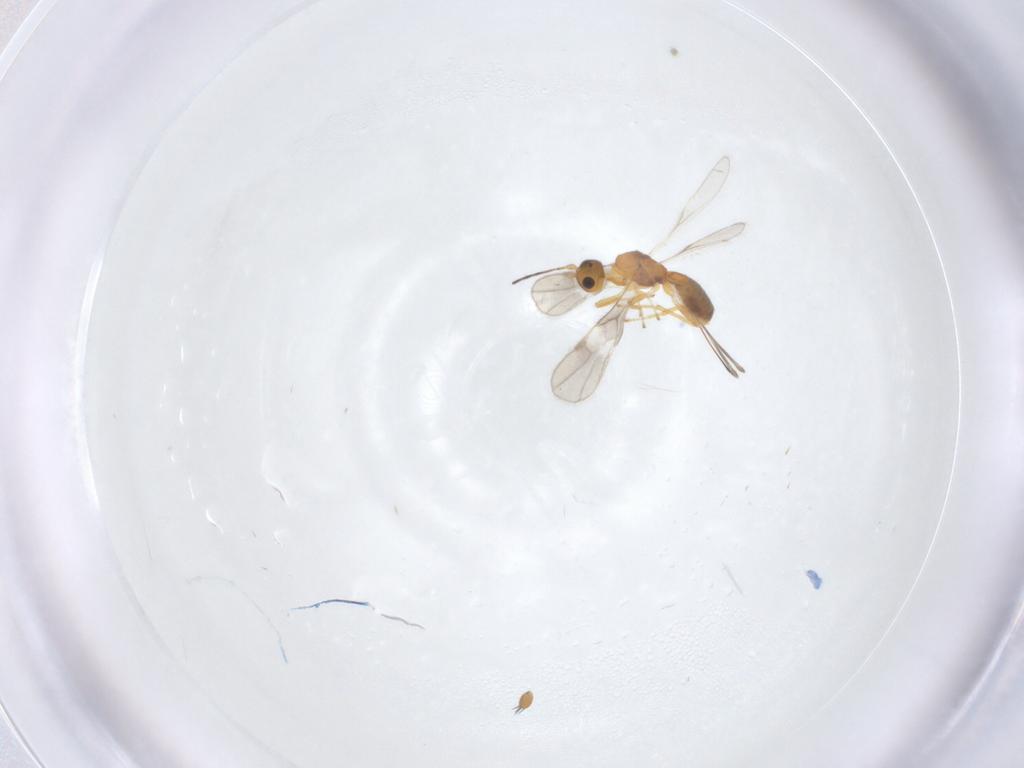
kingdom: Animalia
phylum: Arthropoda
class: Insecta
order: Hymenoptera
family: Braconidae
